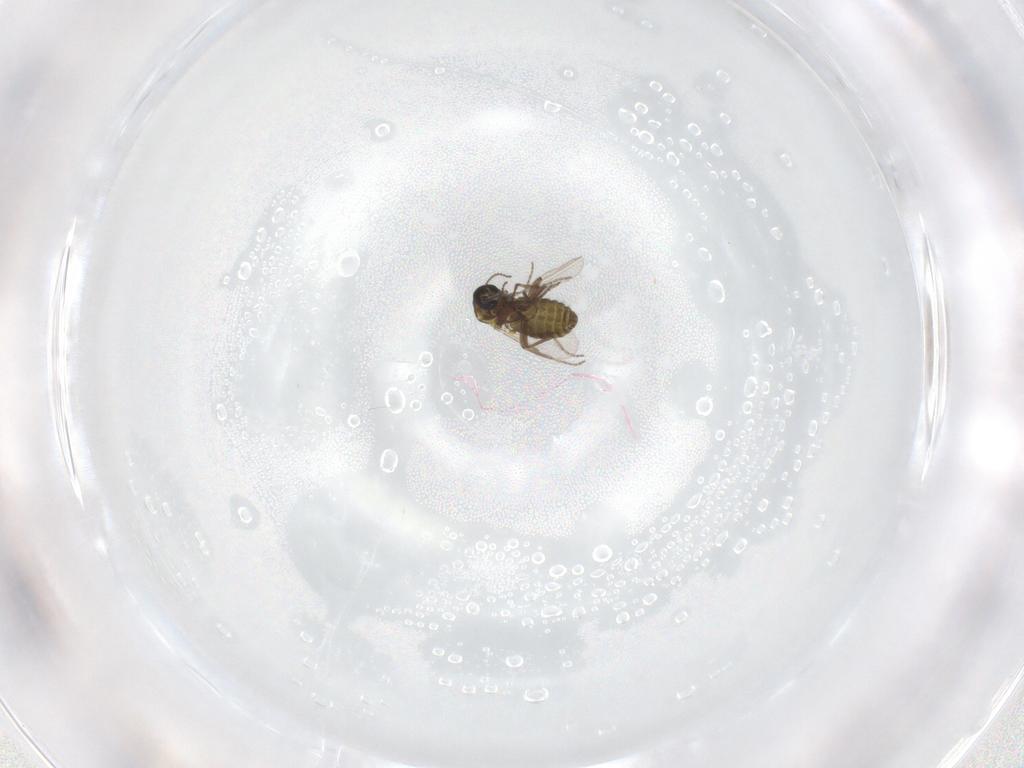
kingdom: Animalia
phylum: Arthropoda
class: Insecta
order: Diptera
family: Ceratopogonidae
